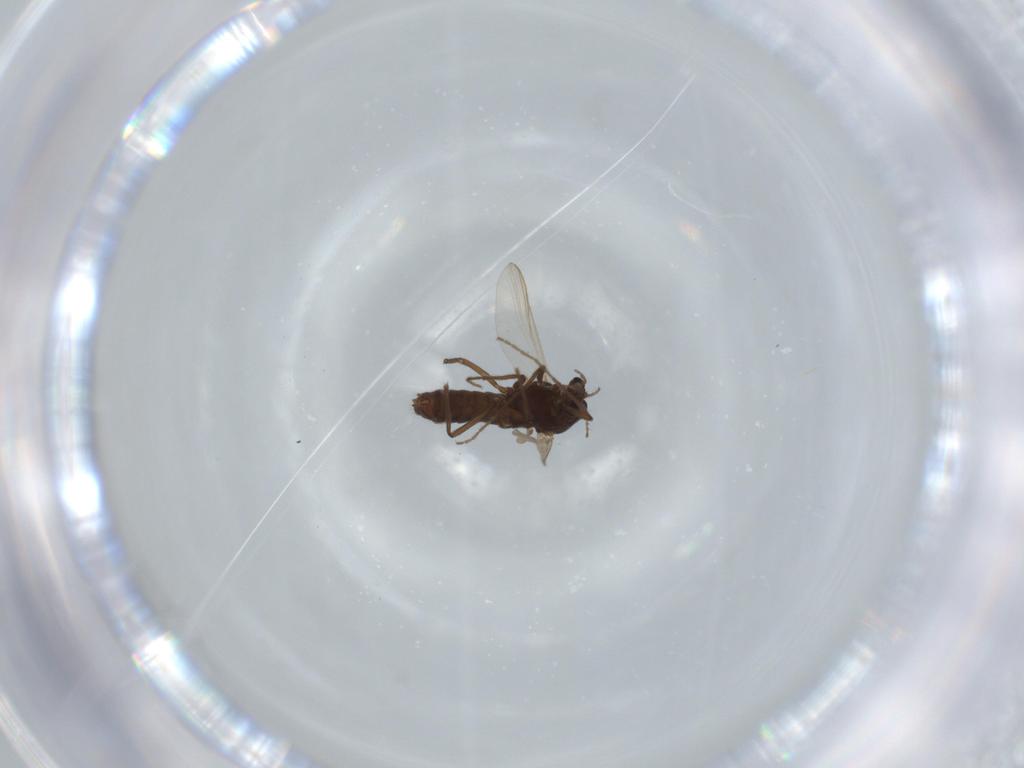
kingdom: Animalia
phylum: Arthropoda
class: Insecta
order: Diptera
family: Chironomidae
